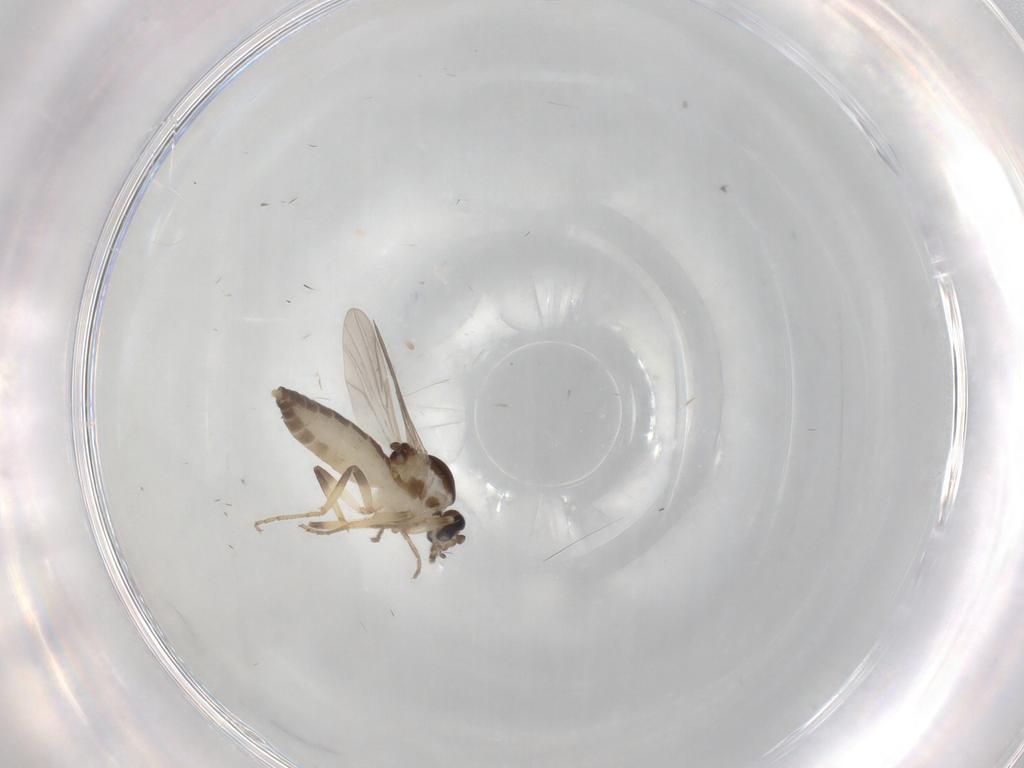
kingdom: Animalia
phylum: Arthropoda
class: Insecta
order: Diptera
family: Ceratopogonidae
